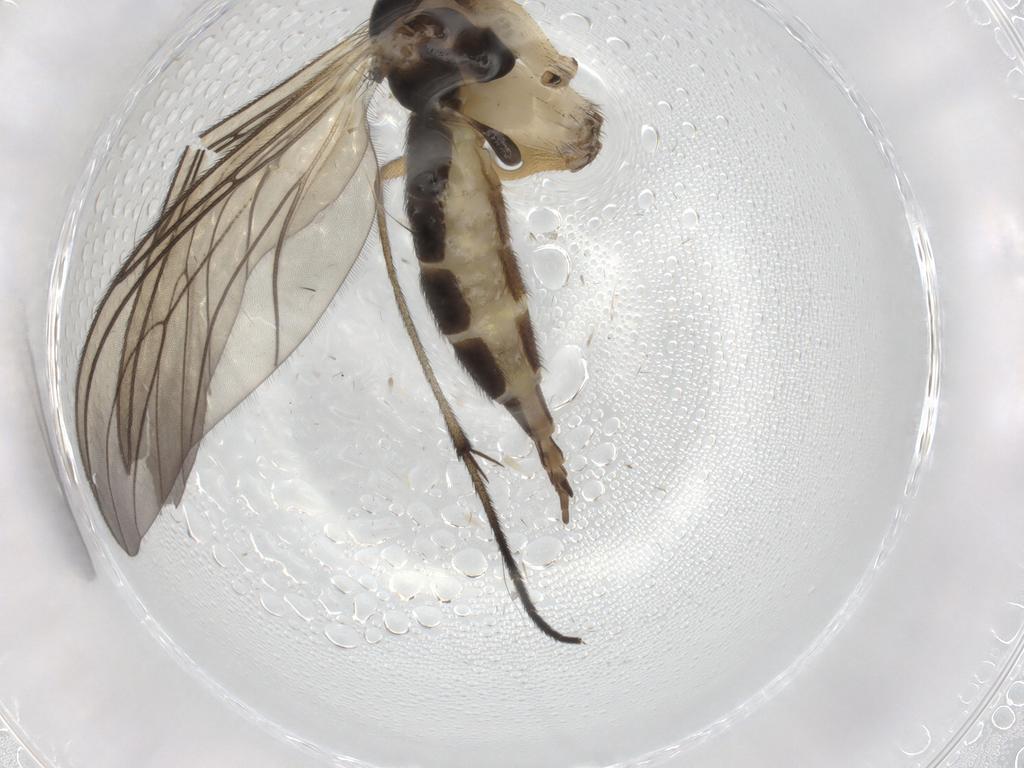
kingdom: Animalia
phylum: Arthropoda
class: Insecta
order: Diptera
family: Sciaridae
